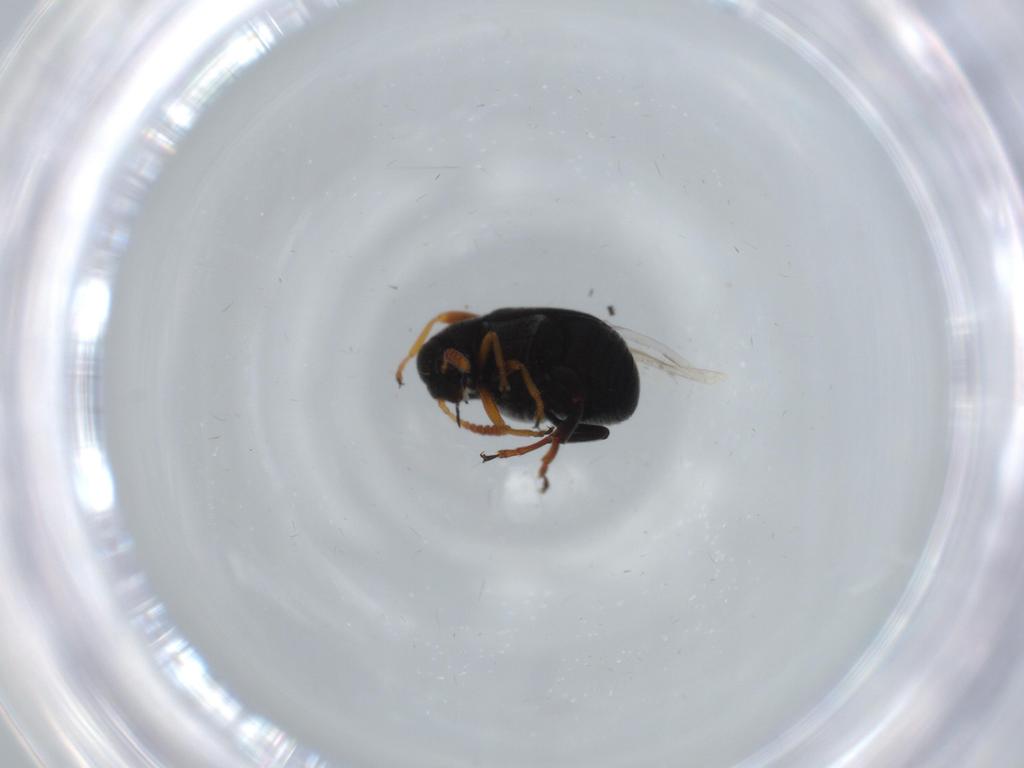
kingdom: Animalia
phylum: Arthropoda
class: Insecta
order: Coleoptera
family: Chrysomelidae
